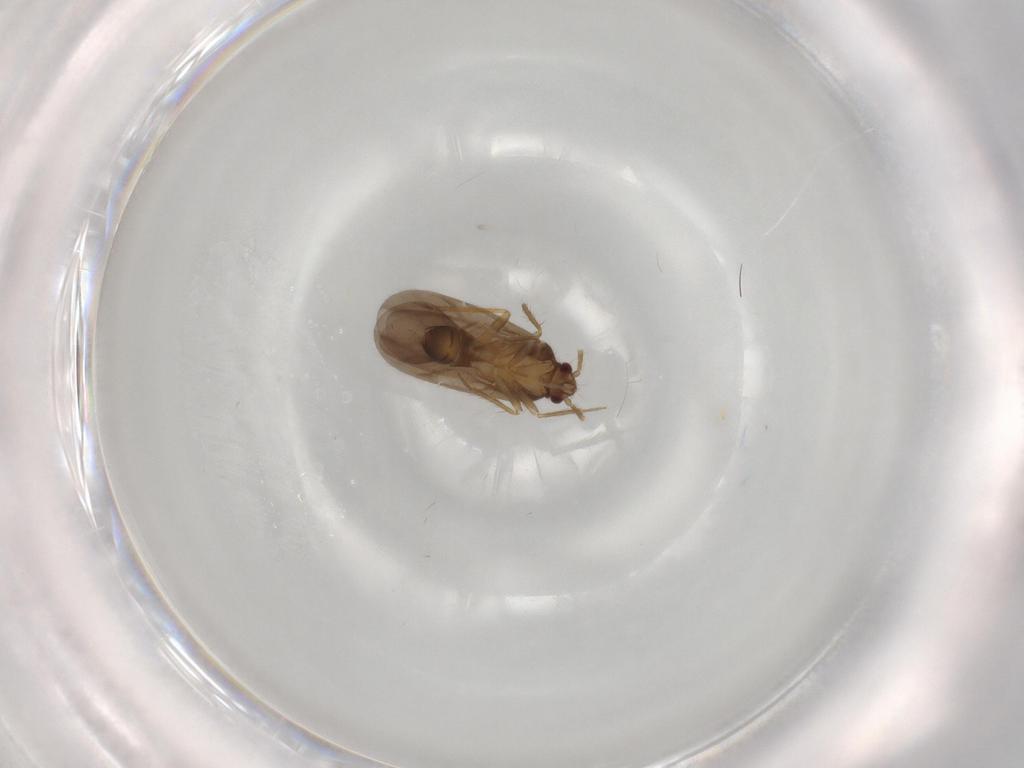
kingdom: Animalia
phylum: Arthropoda
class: Insecta
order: Hemiptera
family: Ceratocombidae
